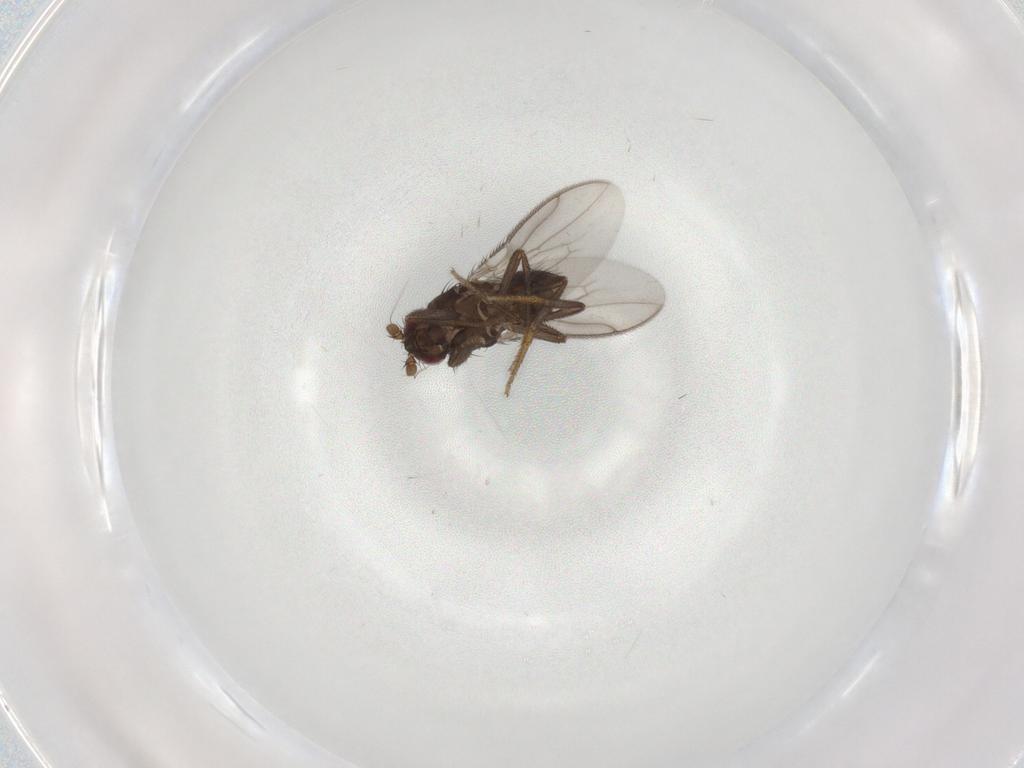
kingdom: Animalia
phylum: Arthropoda
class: Insecta
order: Diptera
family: Sphaeroceridae
